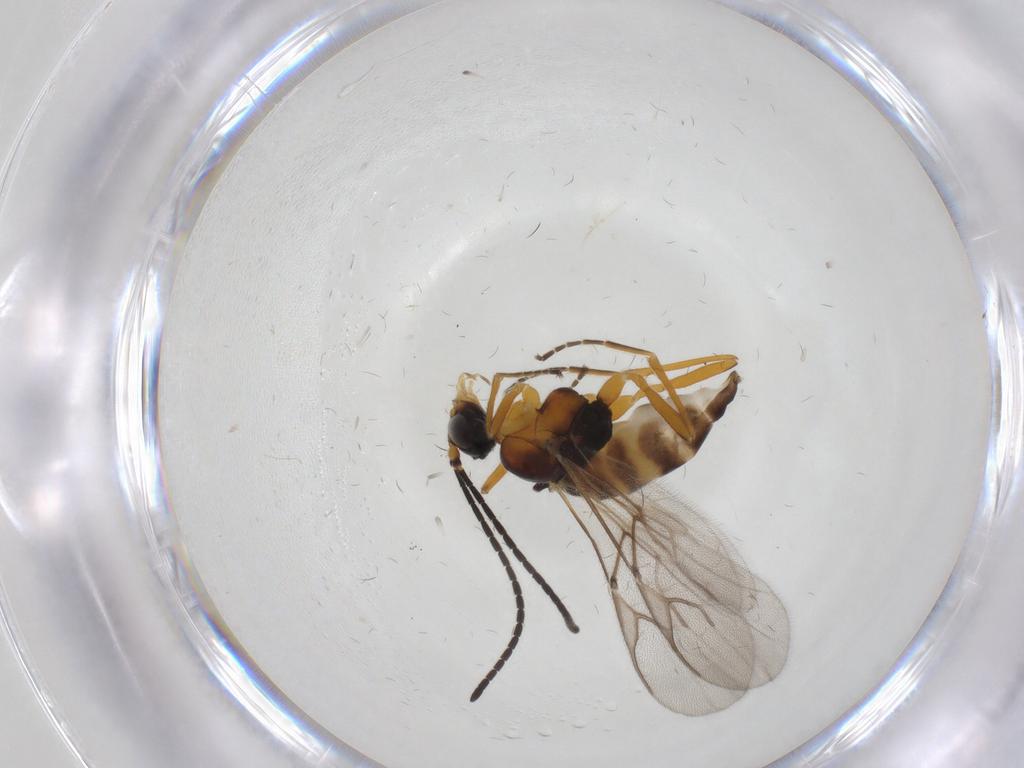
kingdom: Animalia
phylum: Arthropoda
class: Insecta
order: Hymenoptera
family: Braconidae
